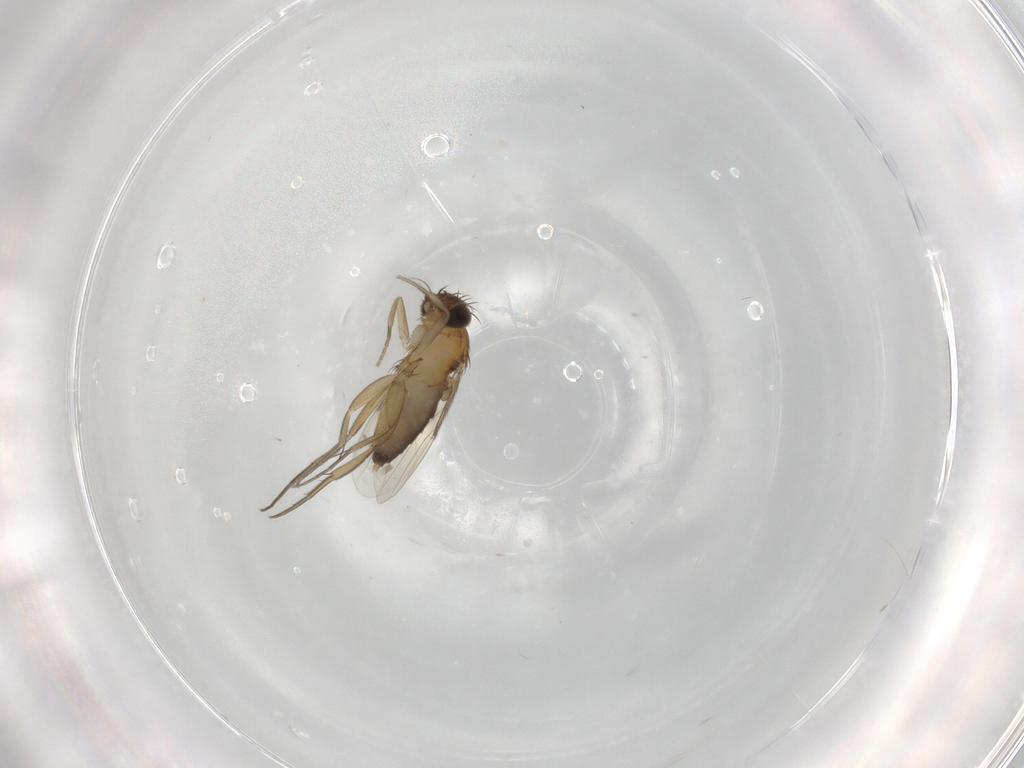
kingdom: Animalia
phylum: Arthropoda
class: Insecta
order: Diptera
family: Phoridae
